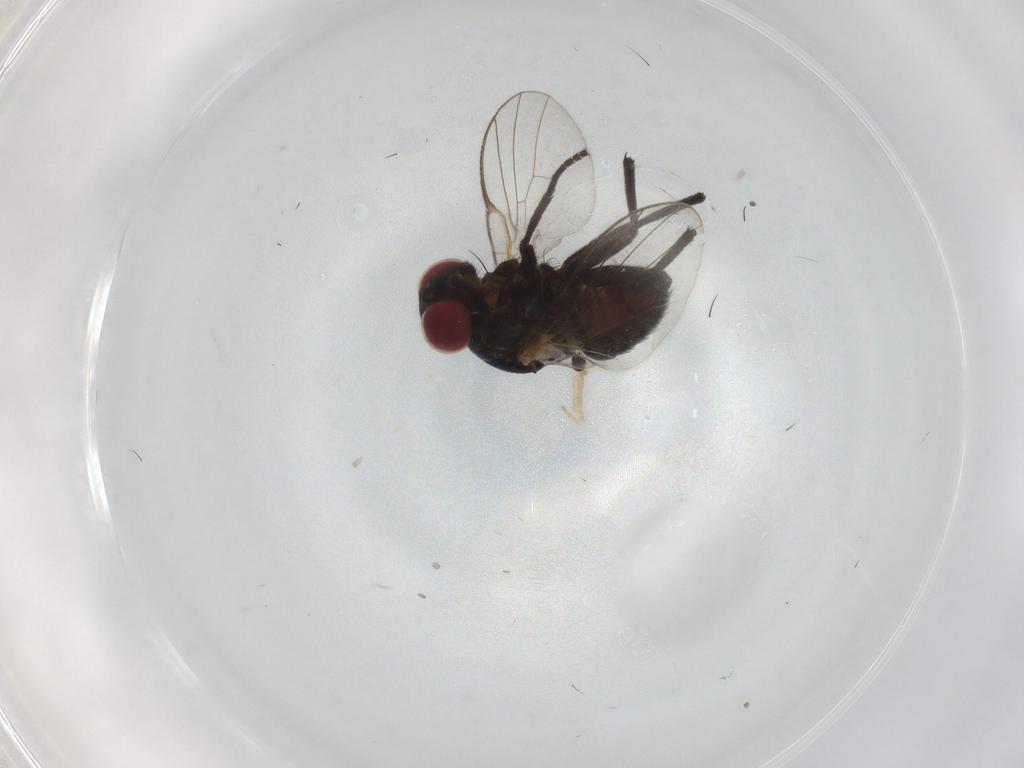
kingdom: Animalia
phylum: Arthropoda
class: Insecta
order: Diptera
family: Agromyzidae
